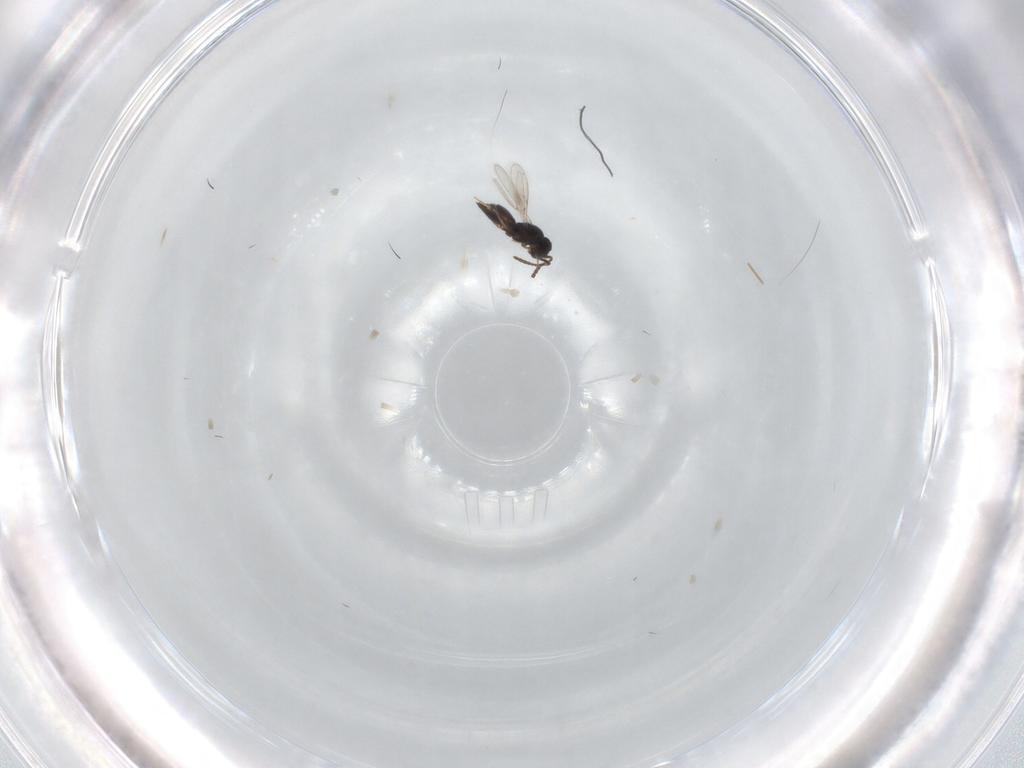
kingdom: Animalia
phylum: Arthropoda
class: Insecta
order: Hymenoptera
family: Scelionidae
